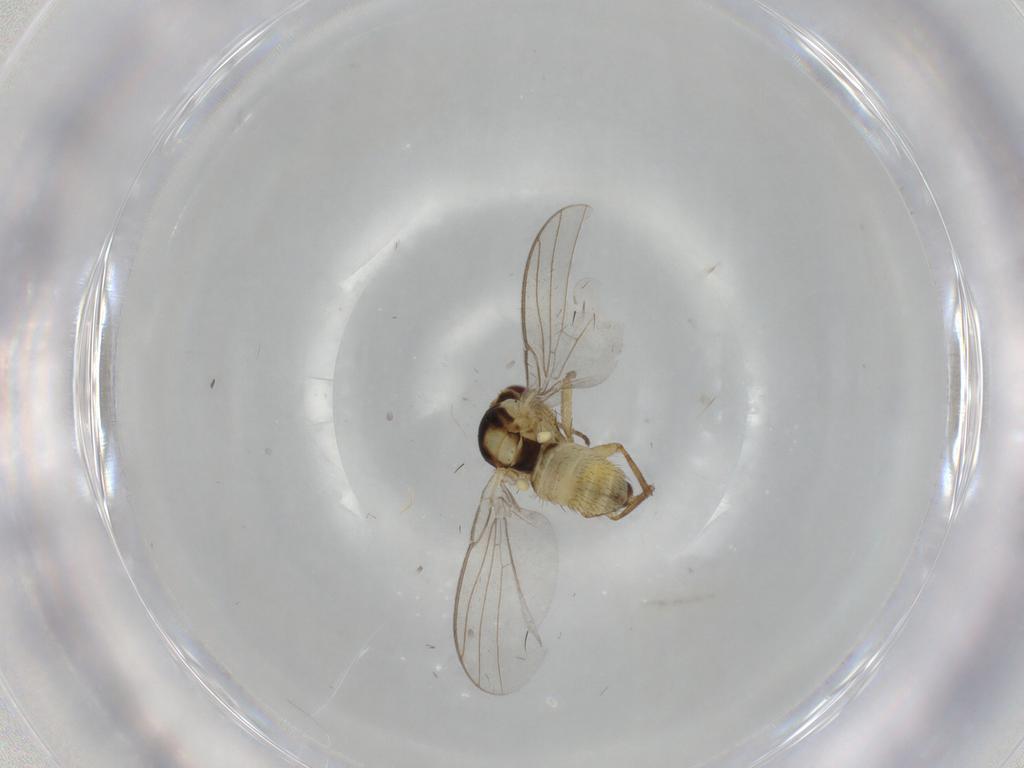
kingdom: Animalia
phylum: Arthropoda
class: Insecta
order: Diptera
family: Agromyzidae
